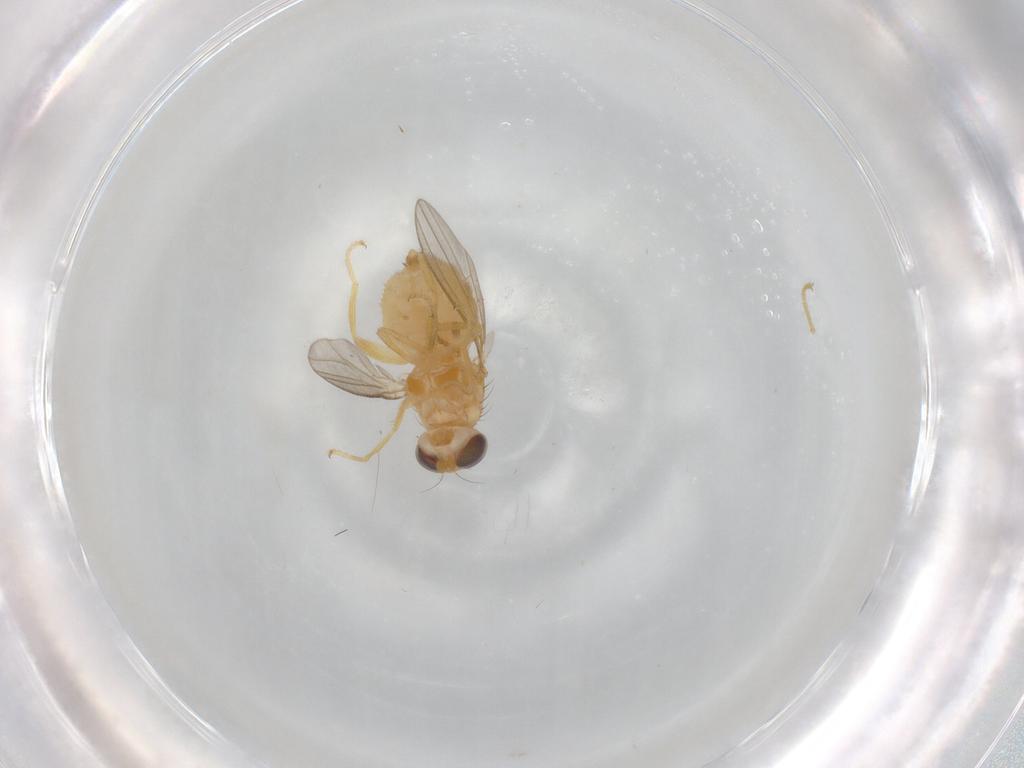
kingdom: Animalia
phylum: Arthropoda
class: Insecta
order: Diptera
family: Chyromyidae
